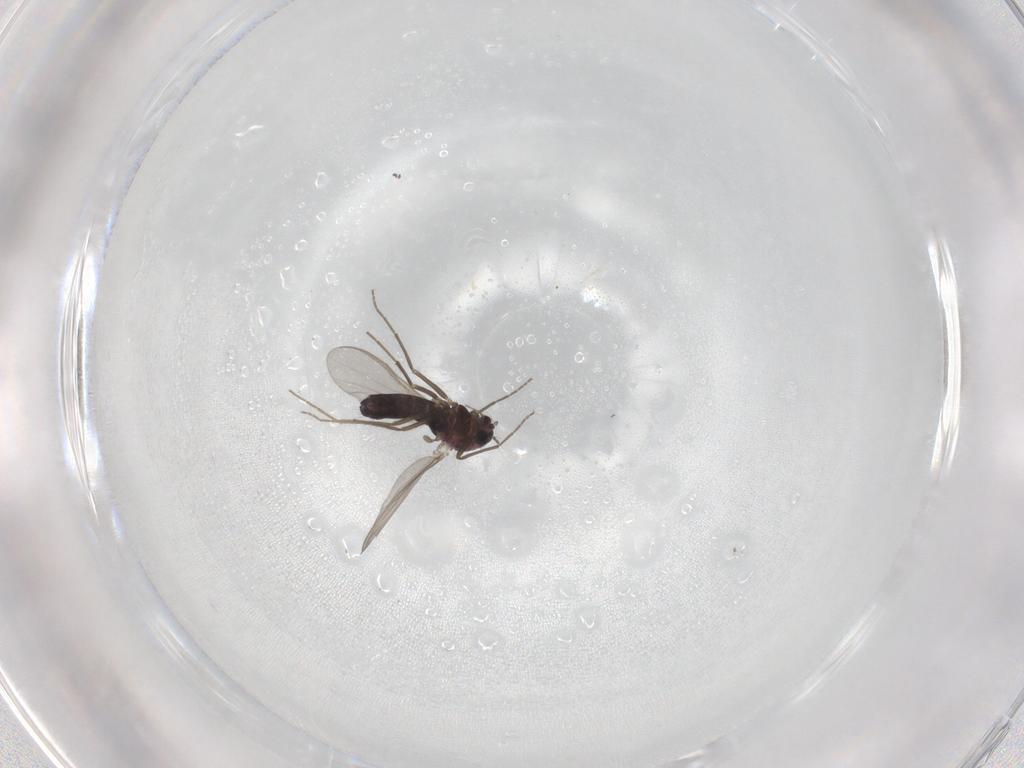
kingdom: Animalia
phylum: Arthropoda
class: Insecta
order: Diptera
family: Chironomidae
